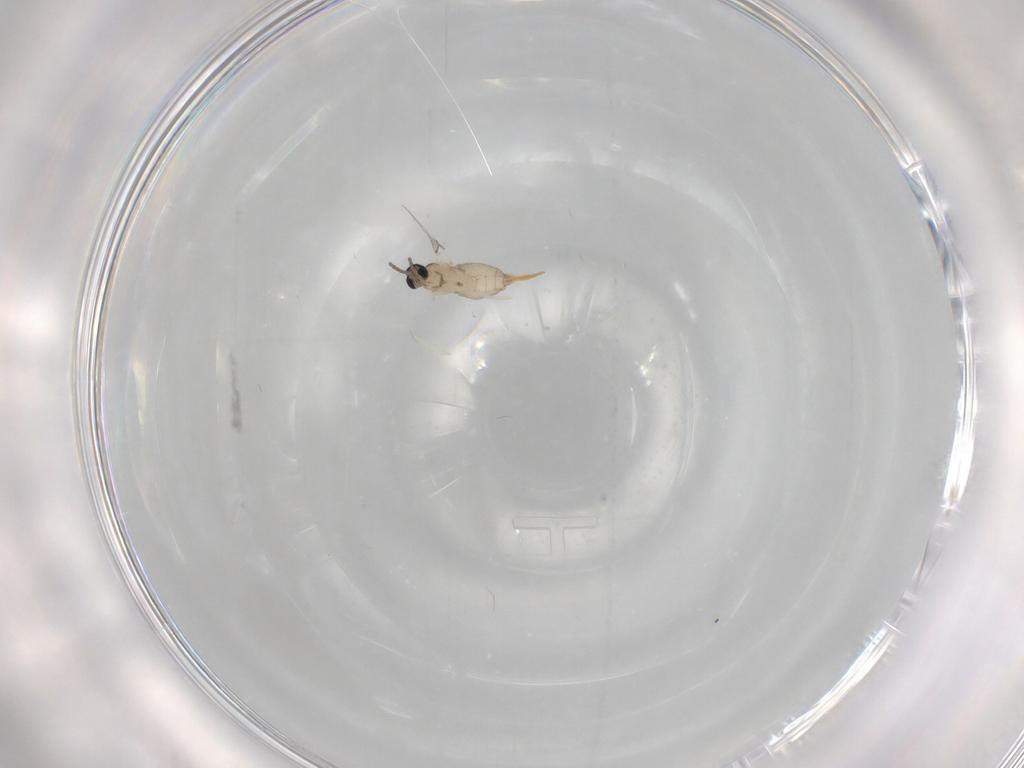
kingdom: Animalia
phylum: Arthropoda
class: Insecta
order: Diptera
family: Cecidomyiidae
